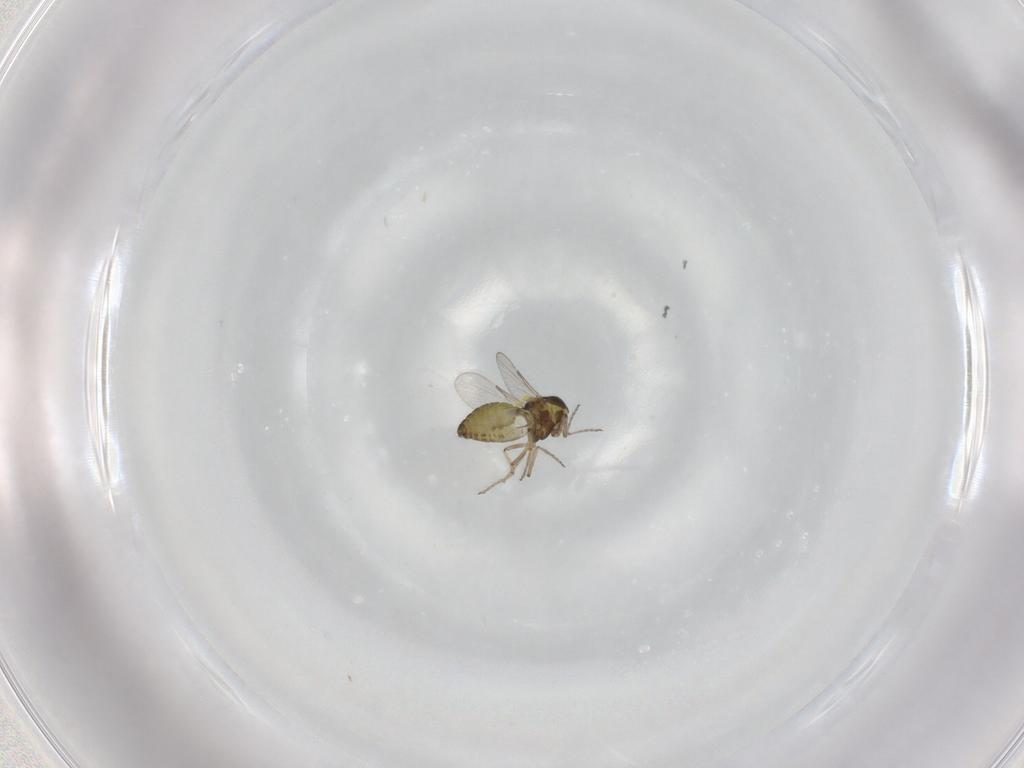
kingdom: Animalia
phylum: Arthropoda
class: Insecta
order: Diptera
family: Ceratopogonidae
